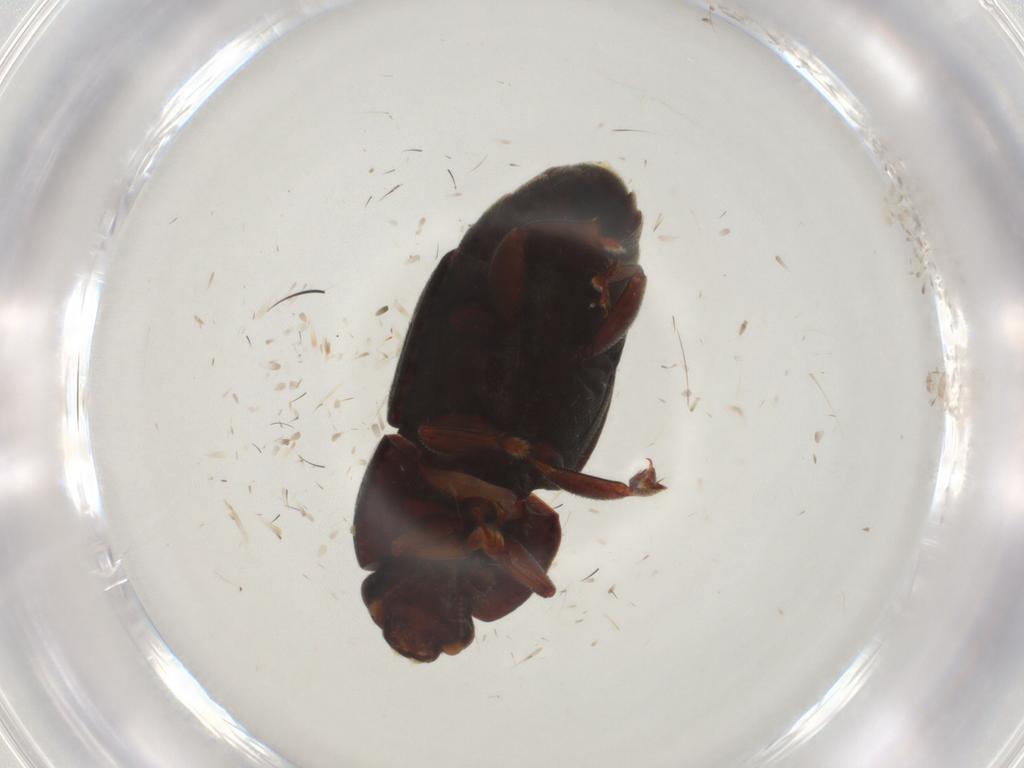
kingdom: Animalia
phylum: Arthropoda
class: Insecta
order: Coleoptera
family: Nitidulidae
